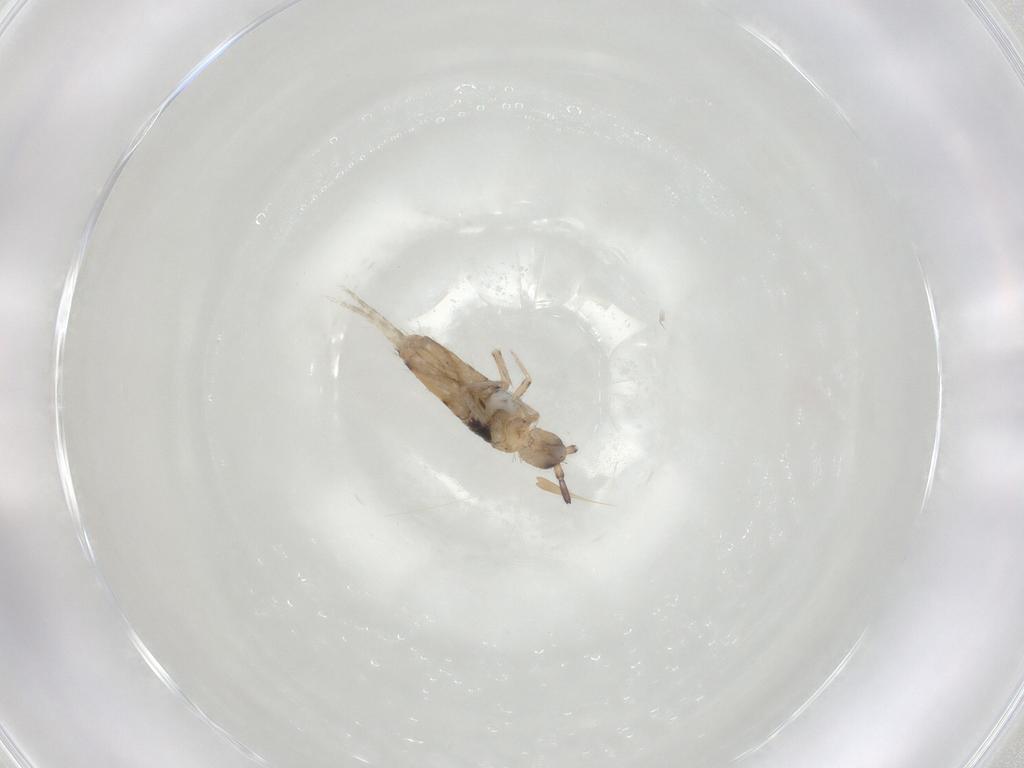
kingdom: Animalia
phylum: Arthropoda
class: Collembola
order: Entomobryomorpha
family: Entomobryidae
